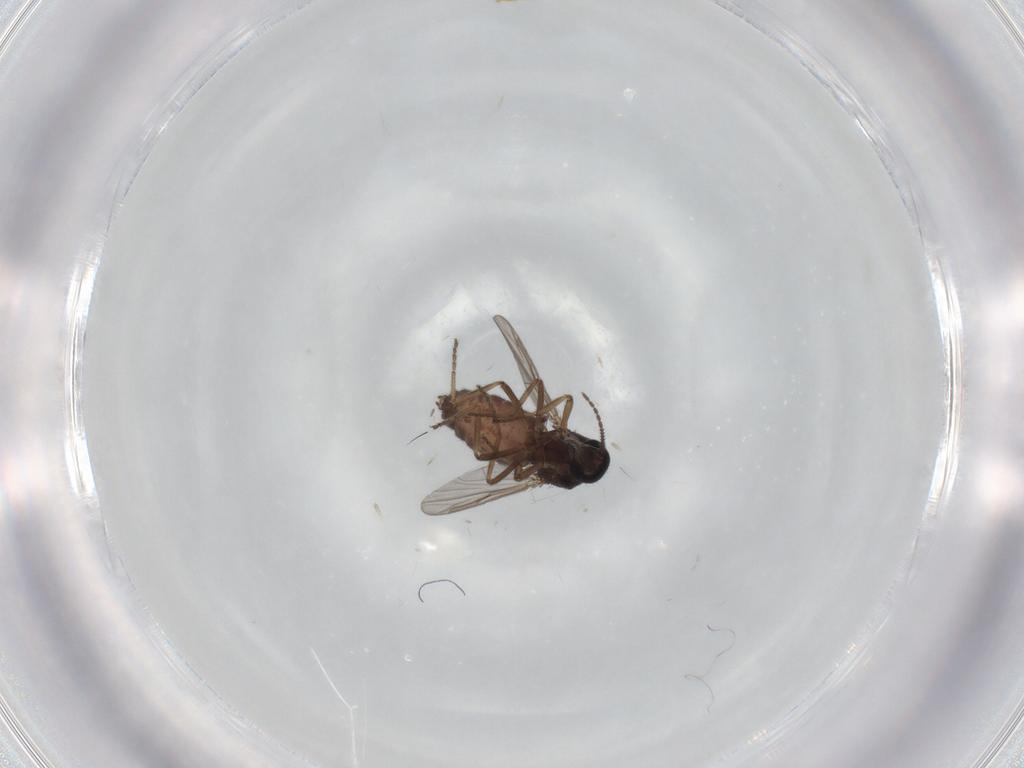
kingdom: Animalia
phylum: Arthropoda
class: Insecta
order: Diptera
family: Ceratopogonidae
